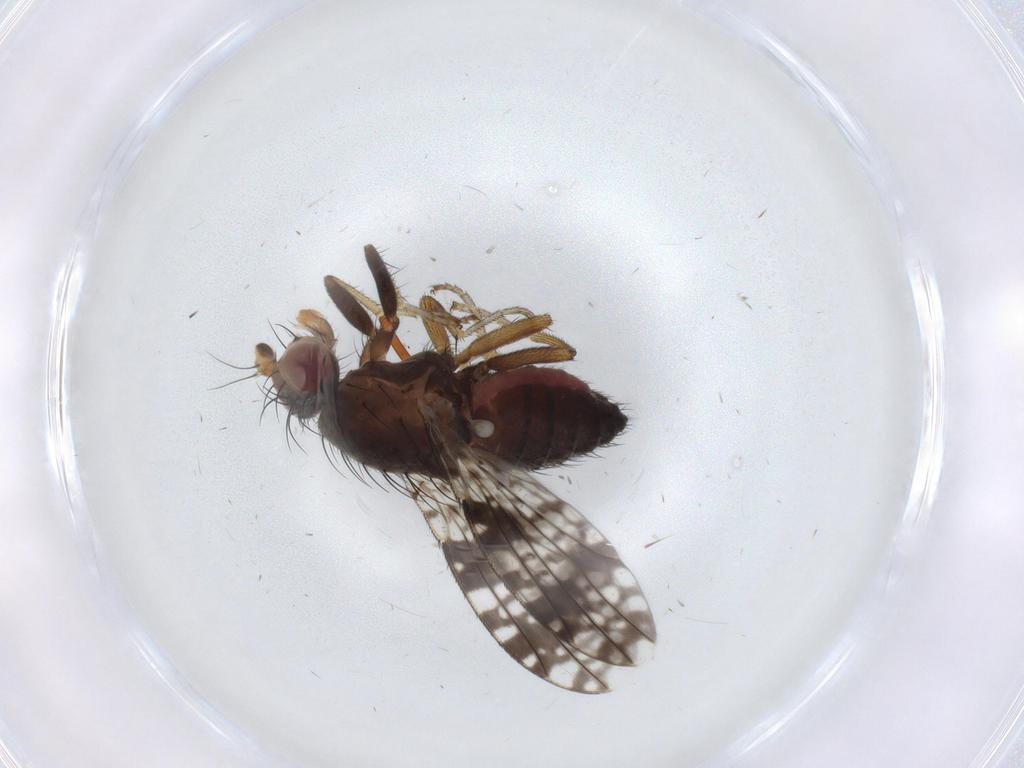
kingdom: Animalia
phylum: Arthropoda
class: Insecta
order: Diptera
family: Tephritidae
